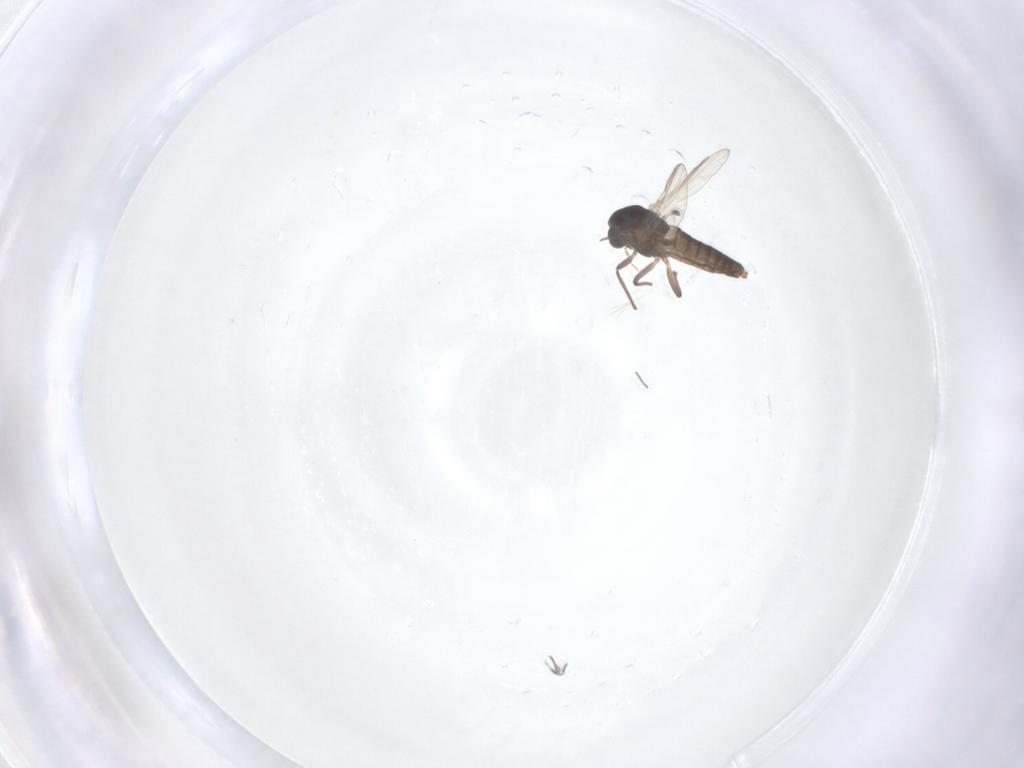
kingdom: Animalia
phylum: Arthropoda
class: Insecta
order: Diptera
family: Chironomidae
